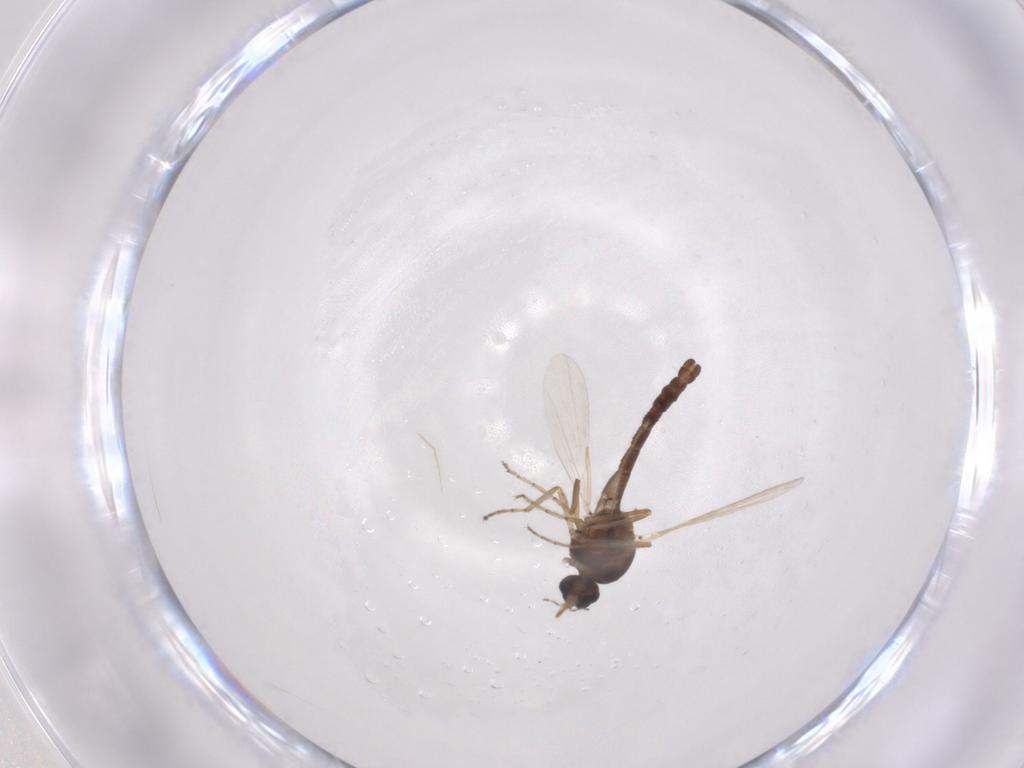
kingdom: Animalia
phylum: Arthropoda
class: Insecta
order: Diptera
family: Ceratopogonidae
